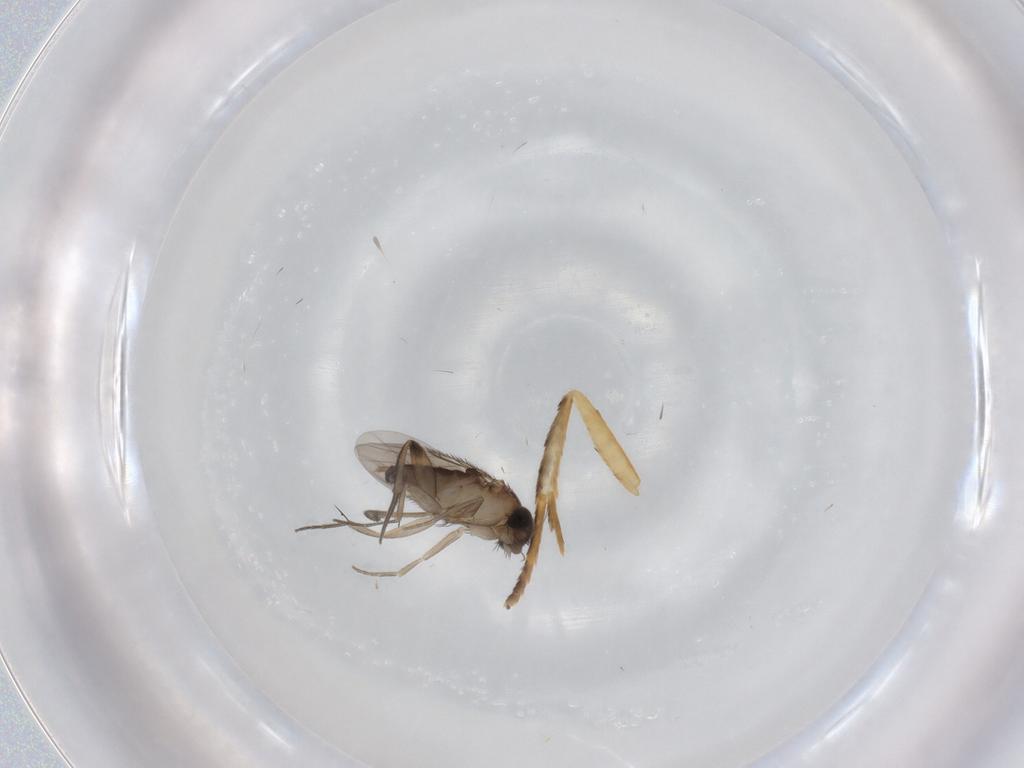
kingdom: Animalia
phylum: Arthropoda
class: Insecta
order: Diptera
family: Phoridae
